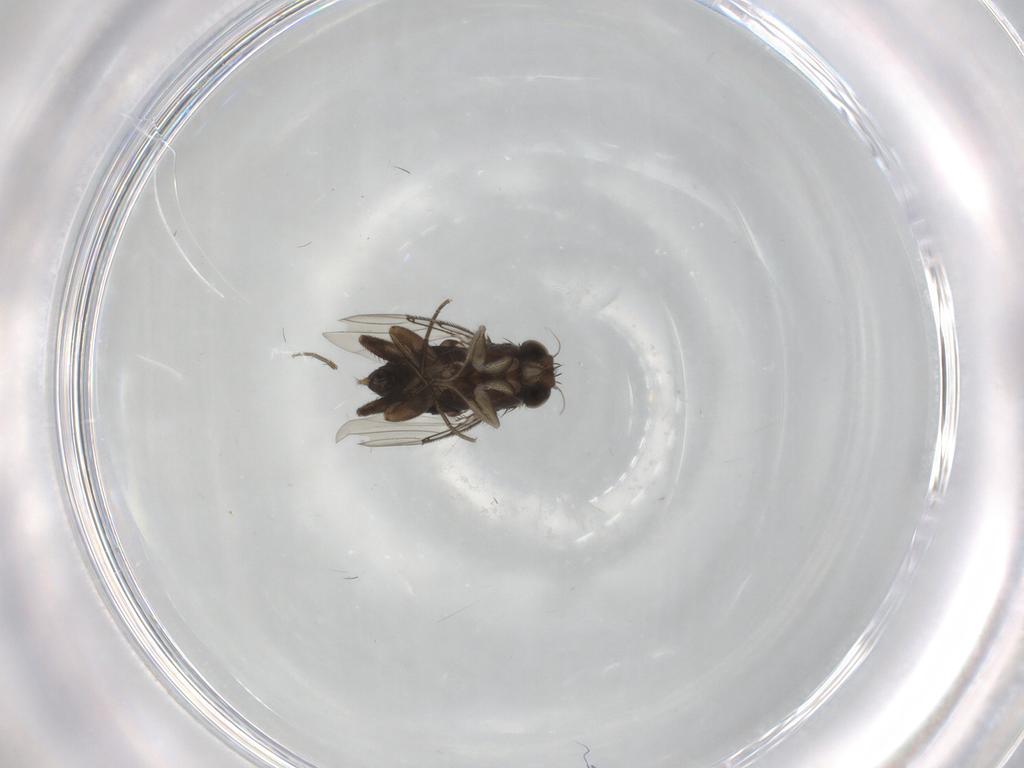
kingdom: Animalia
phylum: Arthropoda
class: Insecta
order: Diptera
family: Phoridae
